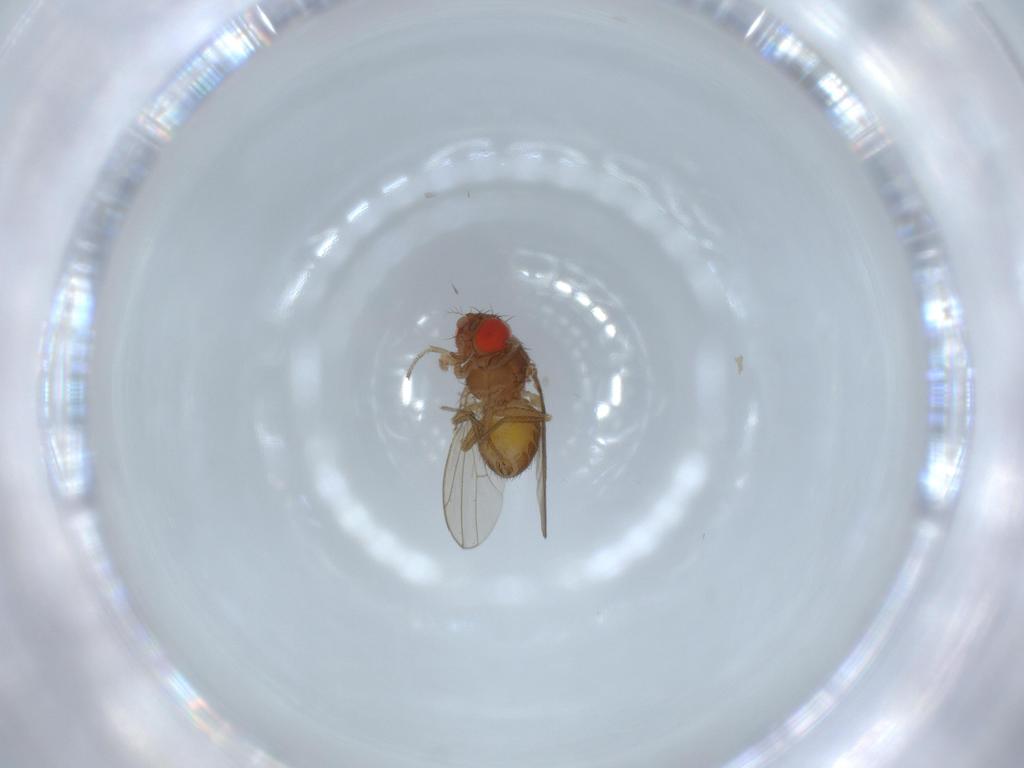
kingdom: Animalia
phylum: Arthropoda
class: Insecta
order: Diptera
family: Drosophilidae
